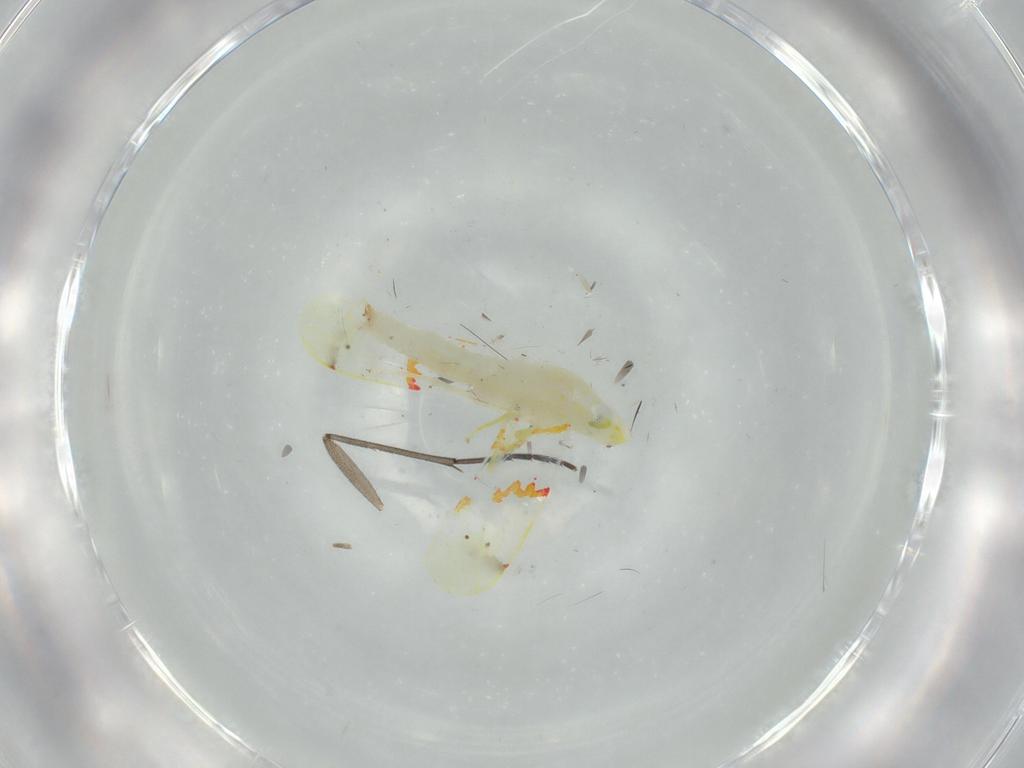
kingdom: Animalia
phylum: Arthropoda
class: Insecta
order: Hemiptera
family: Cicadellidae
